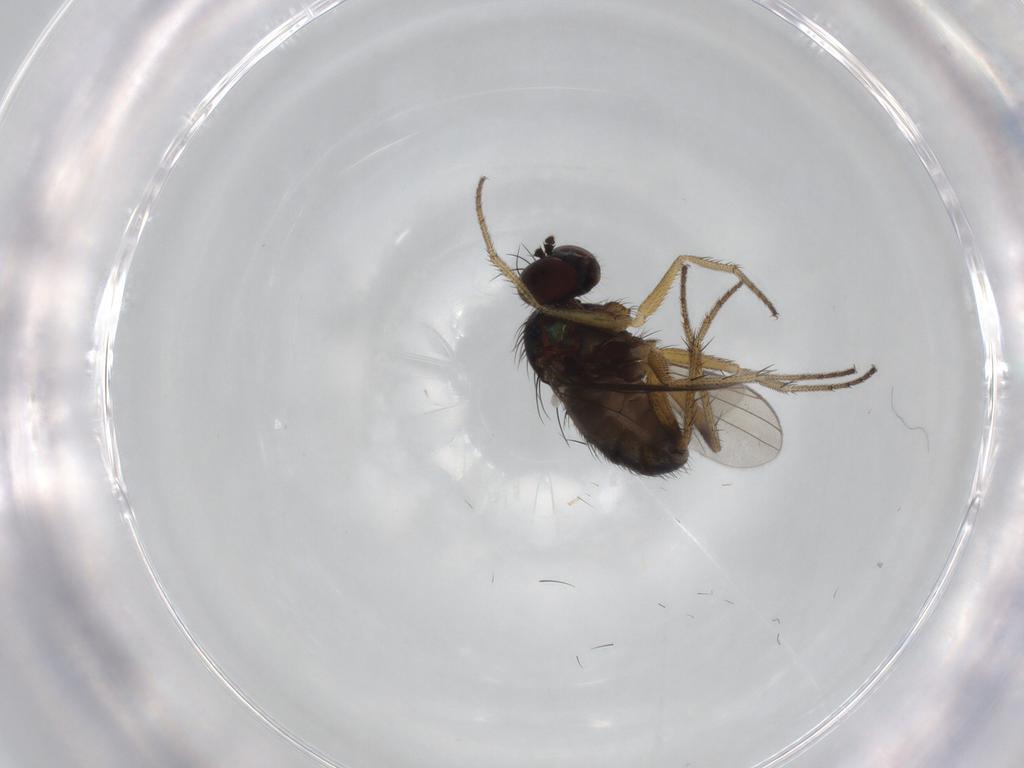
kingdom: Animalia
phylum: Arthropoda
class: Insecta
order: Diptera
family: Dolichopodidae
